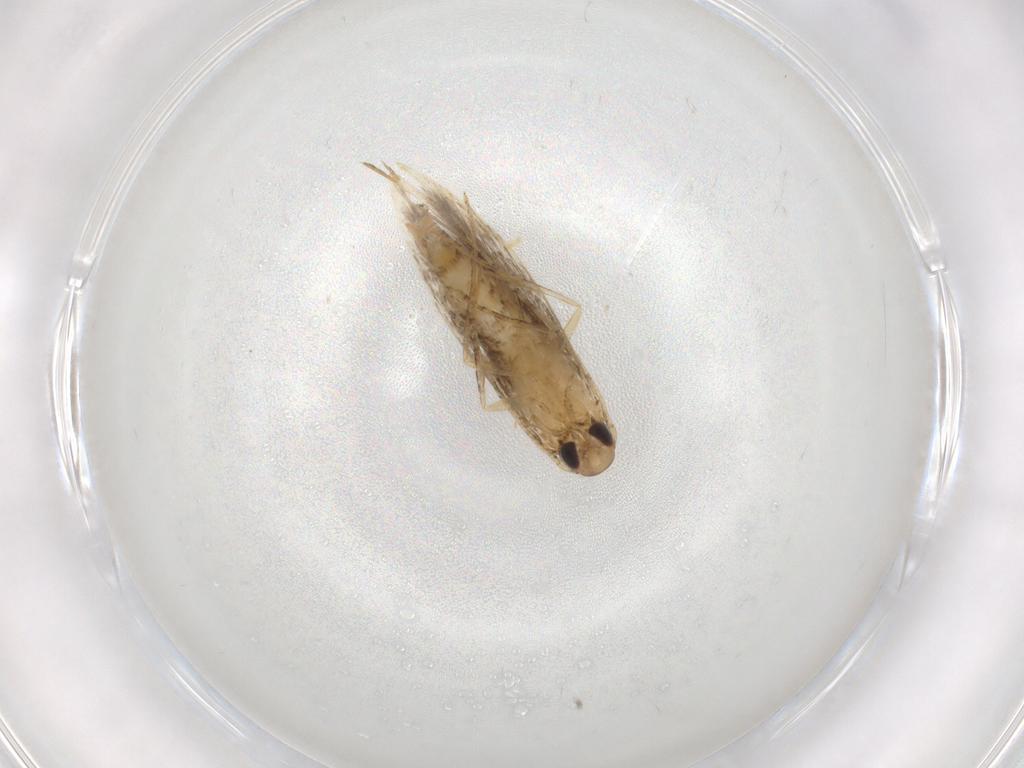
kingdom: Animalia
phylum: Arthropoda
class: Insecta
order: Lepidoptera
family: Crambidae
